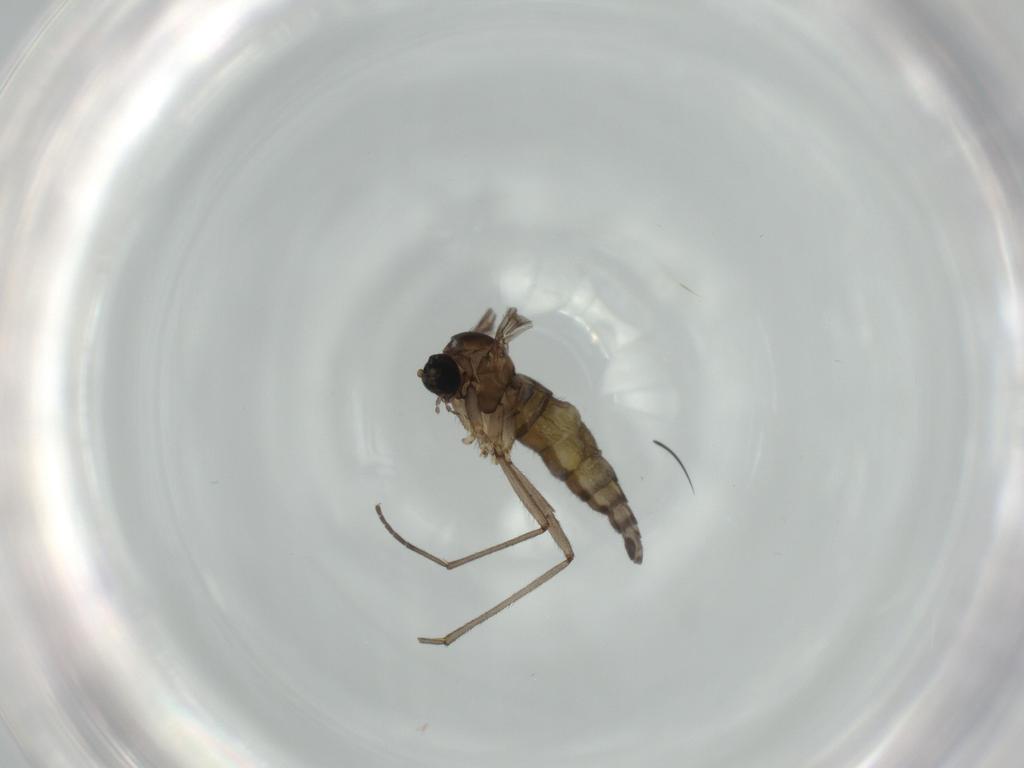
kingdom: Animalia
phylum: Arthropoda
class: Insecta
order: Diptera
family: Sciaridae
